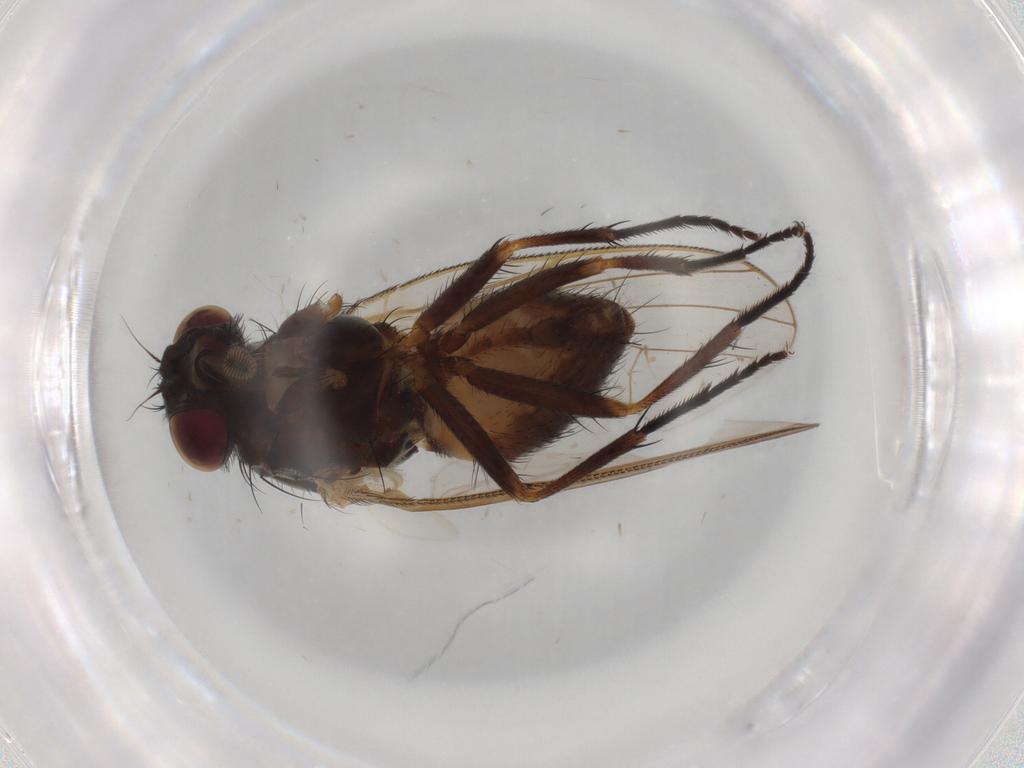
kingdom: Animalia
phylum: Arthropoda
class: Insecta
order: Diptera
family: Fannia
